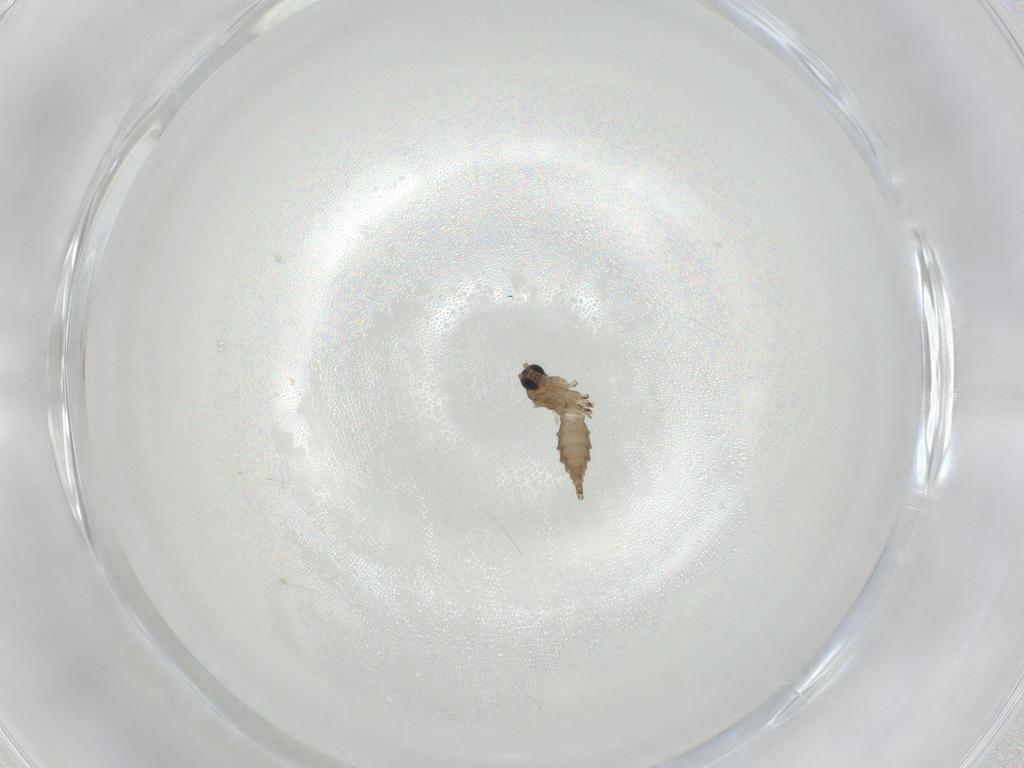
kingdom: Animalia
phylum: Arthropoda
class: Insecta
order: Diptera
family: Sciaridae
